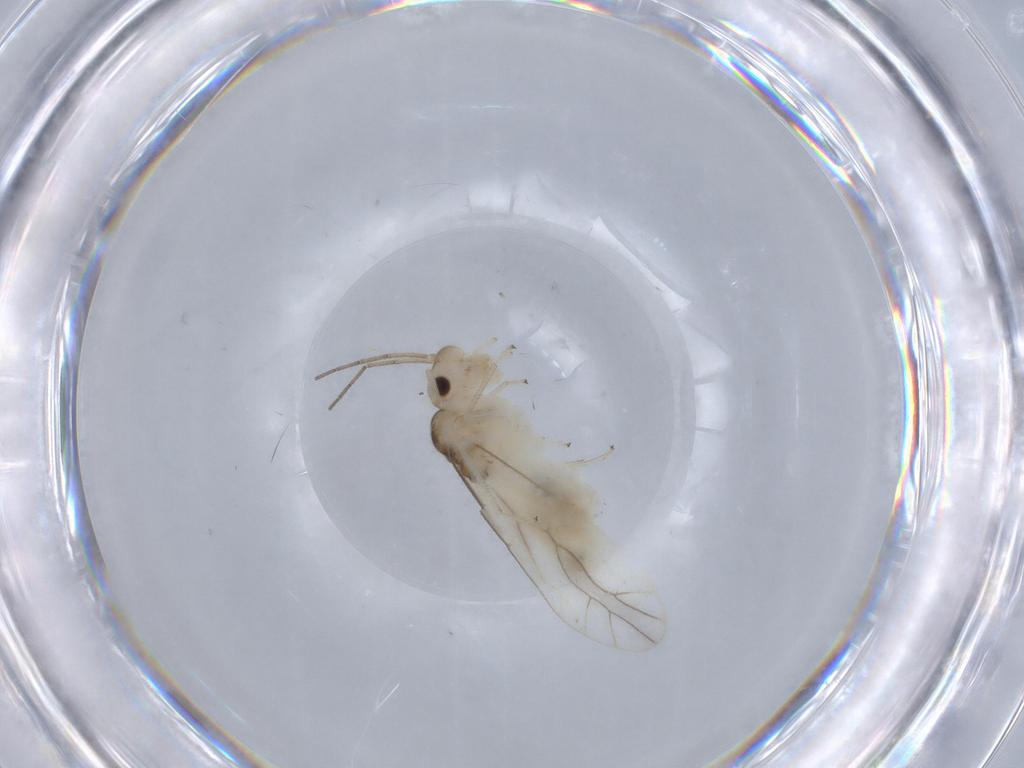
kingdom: Animalia
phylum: Arthropoda
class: Insecta
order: Psocodea
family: Caeciliusidae
